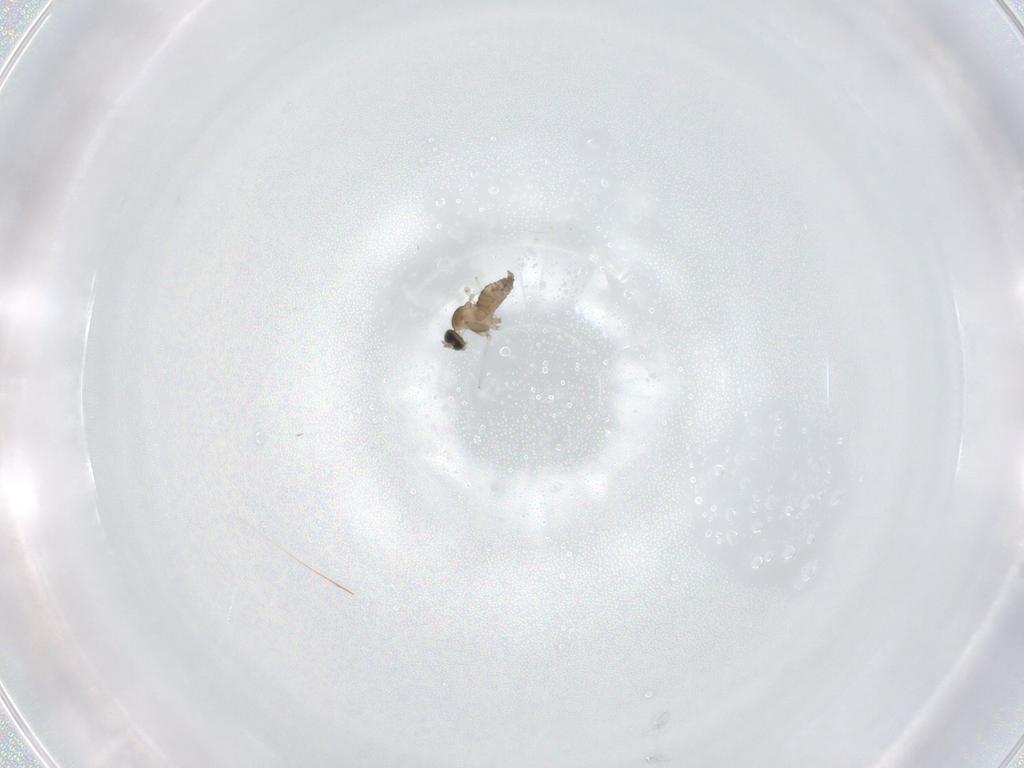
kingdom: Animalia
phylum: Arthropoda
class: Insecta
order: Diptera
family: Cecidomyiidae
